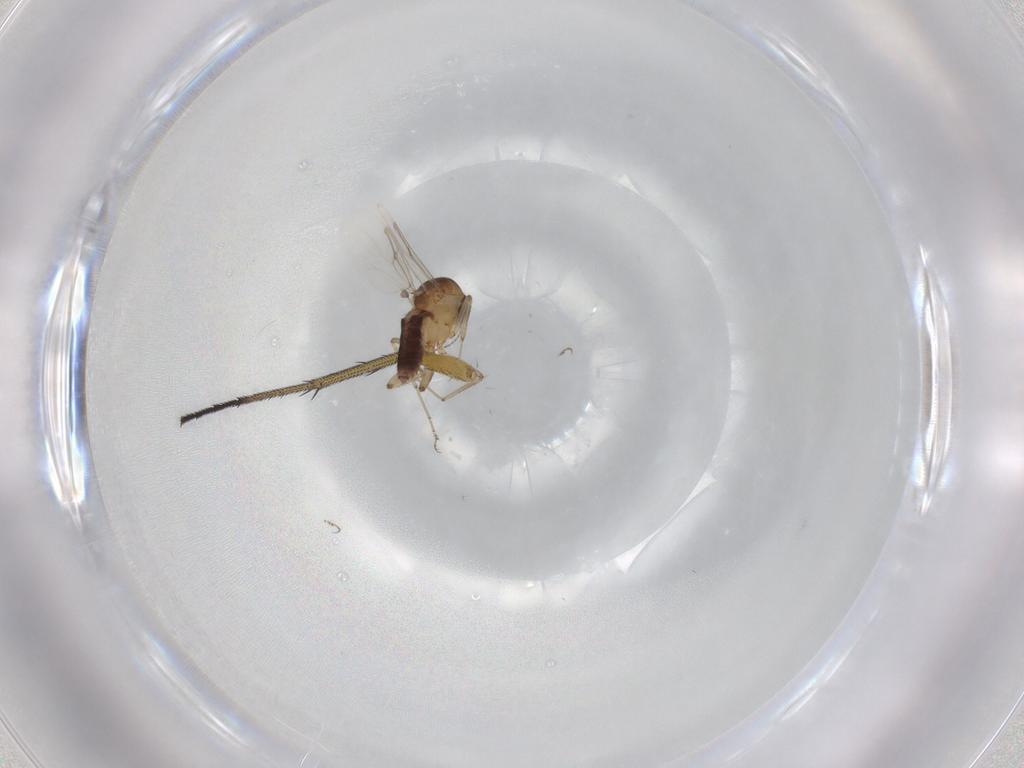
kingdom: Animalia
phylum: Arthropoda
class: Insecta
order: Diptera
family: Dolichopodidae
